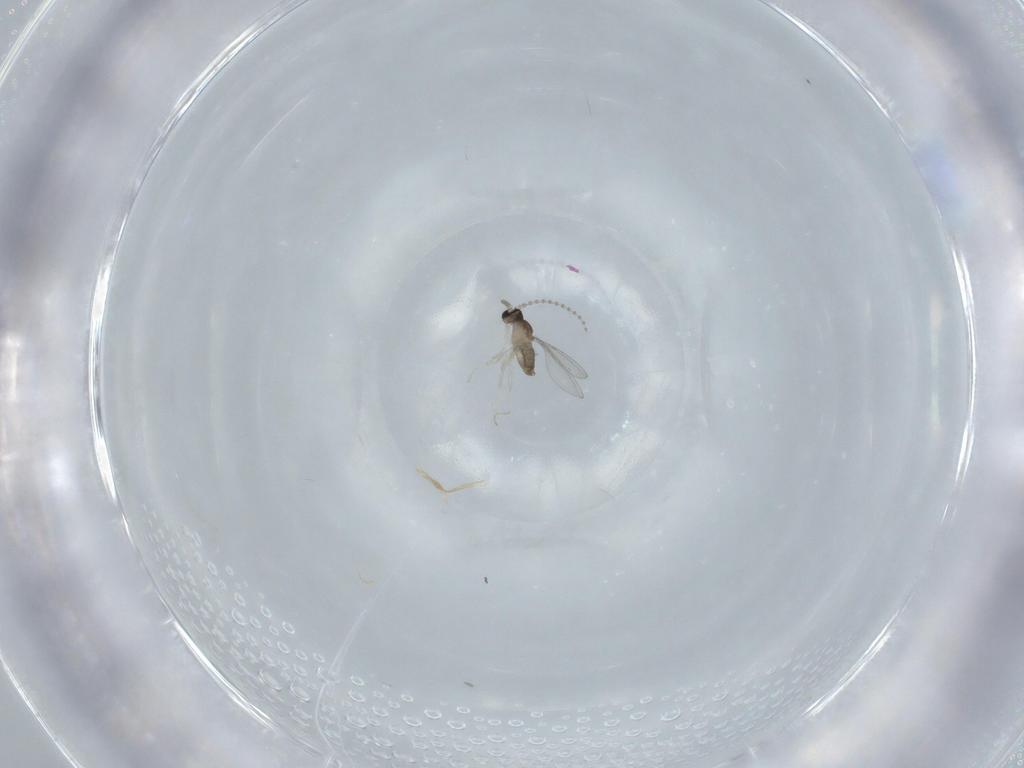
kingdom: Animalia
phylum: Arthropoda
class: Insecta
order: Diptera
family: Cecidomyiidae
